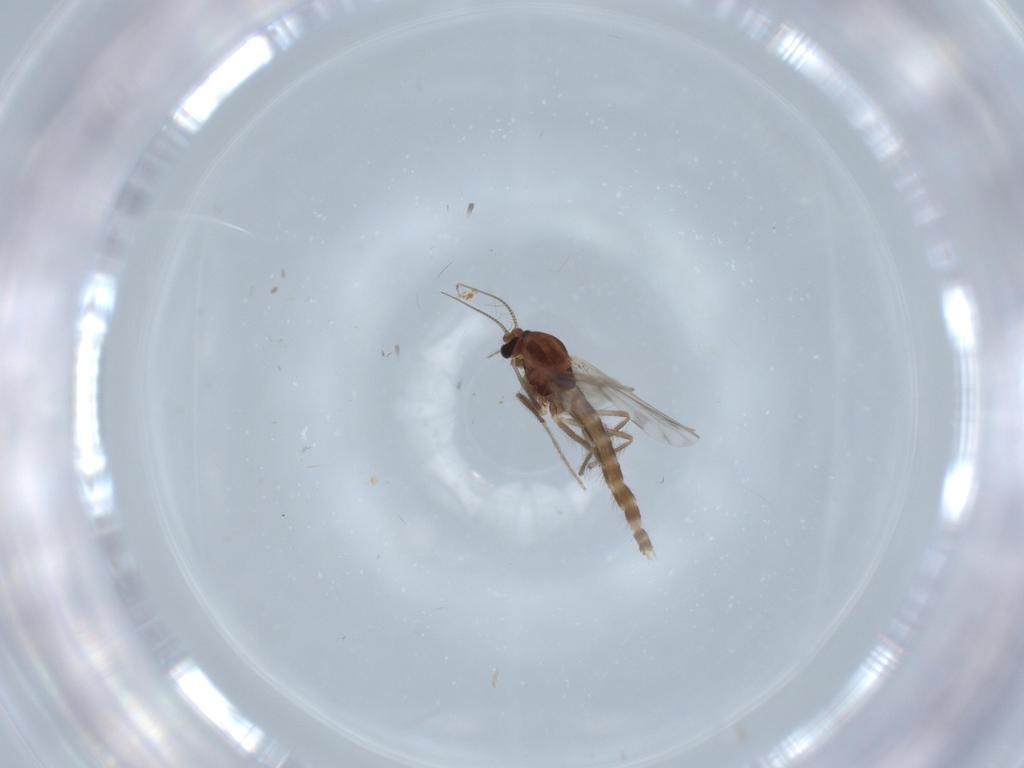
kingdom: Animalia
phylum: Arthropoda
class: Insecta
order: Diptera
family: Chironomidae
